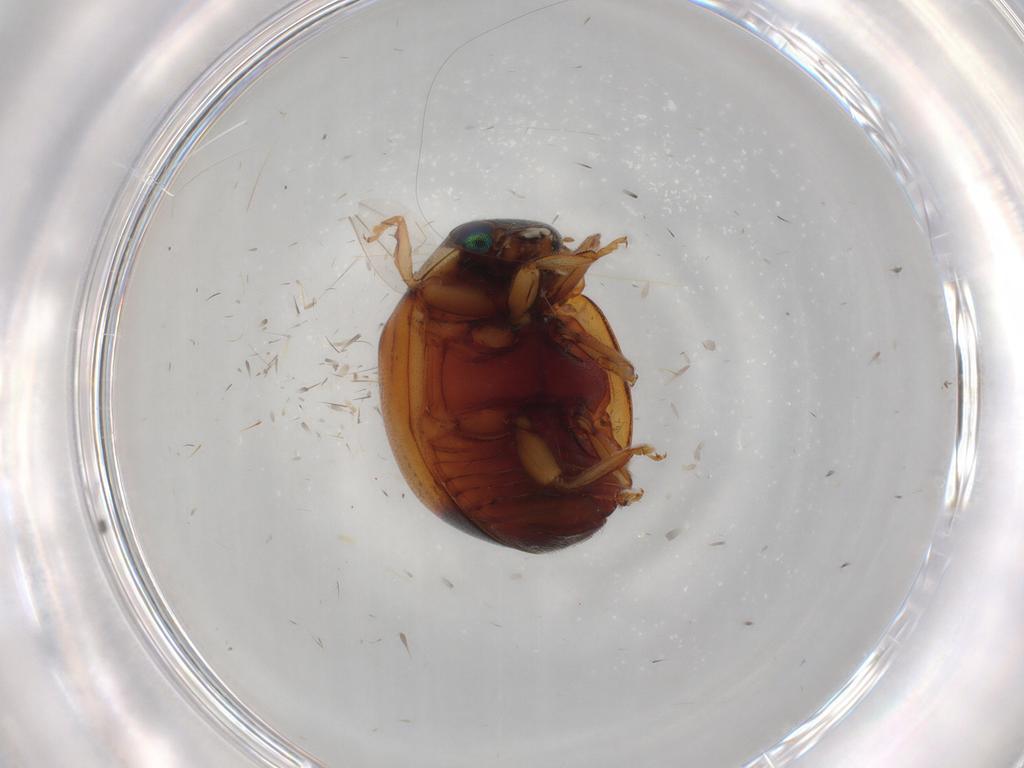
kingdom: Animalia
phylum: Arthropoda
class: Insecta
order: Coleoptera
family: Coccinellidae
